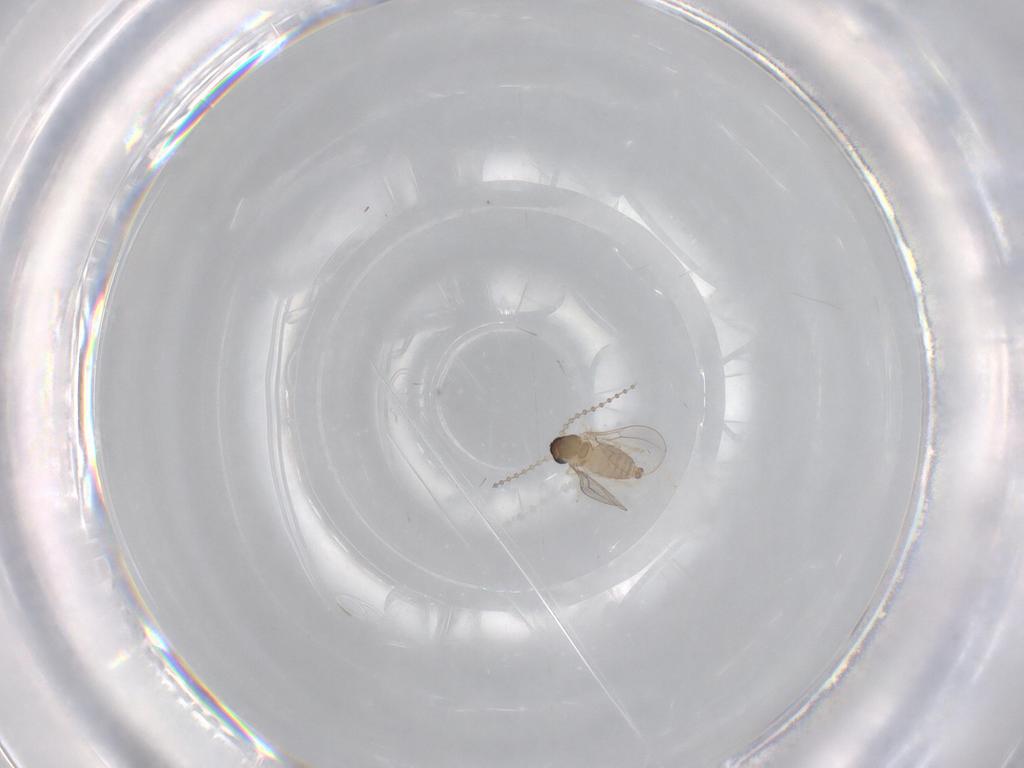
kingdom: Animalia
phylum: Arthropoda
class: Insecta
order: Diptera
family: Cecidomyiidae
